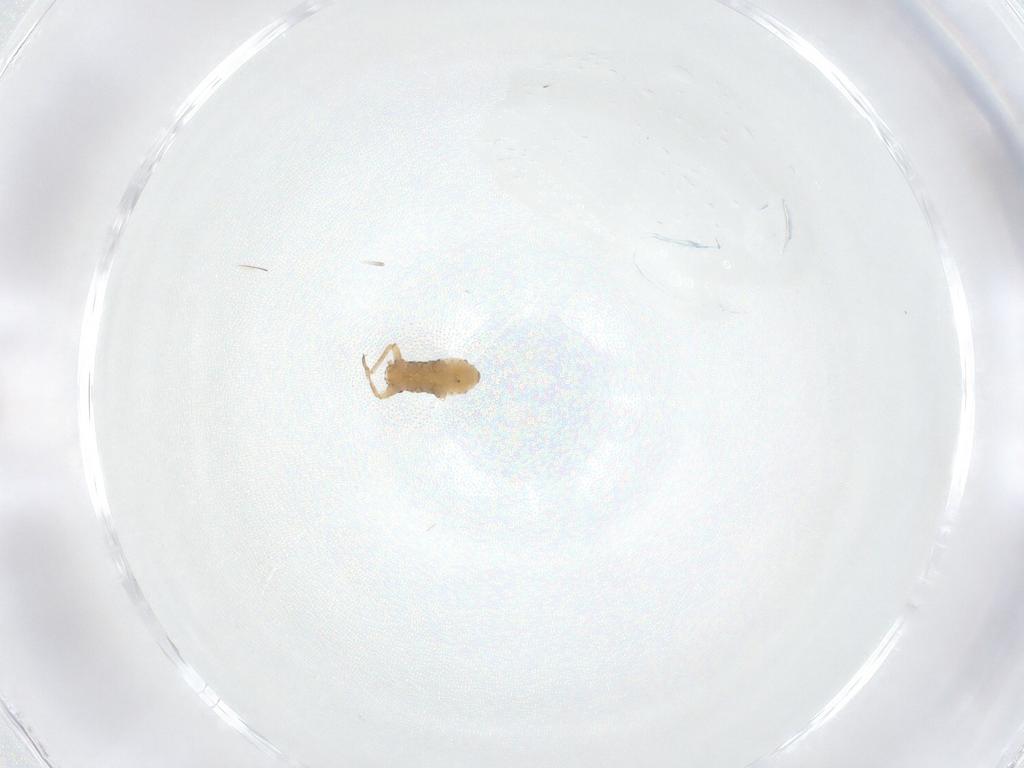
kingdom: Animalia
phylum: Arthropoda
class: Insecta
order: Hemiptera
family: Aphididae
